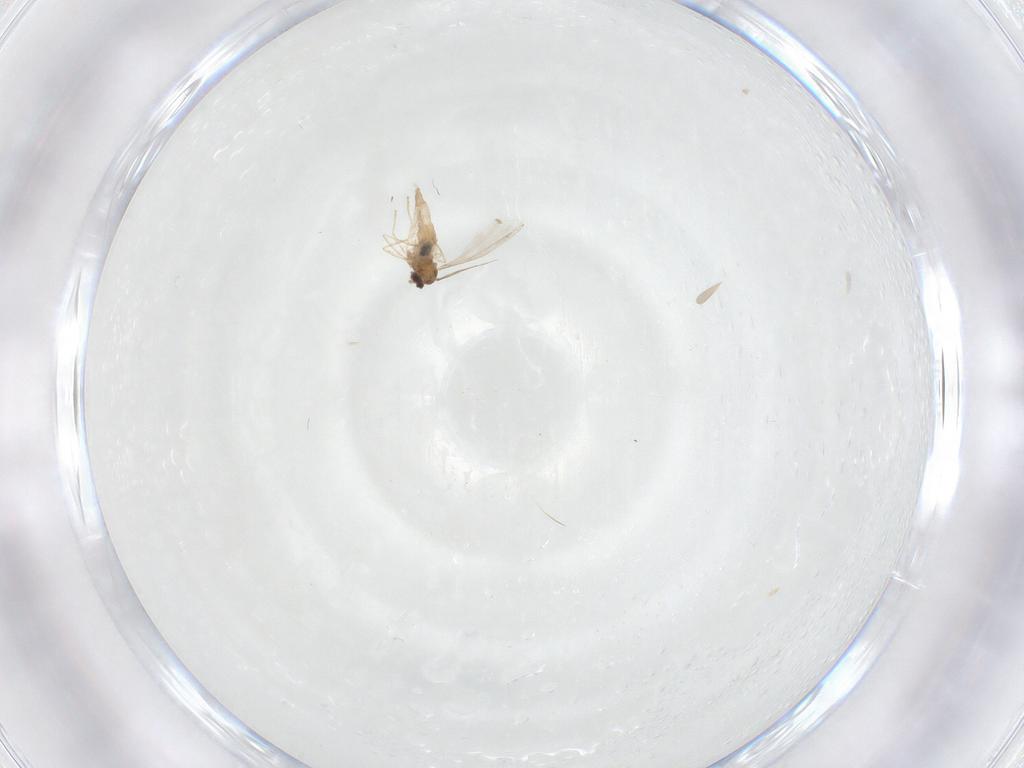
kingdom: Animalia
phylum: Arthropoda
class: Insecta
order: Diptera
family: Cecidomyiidae
